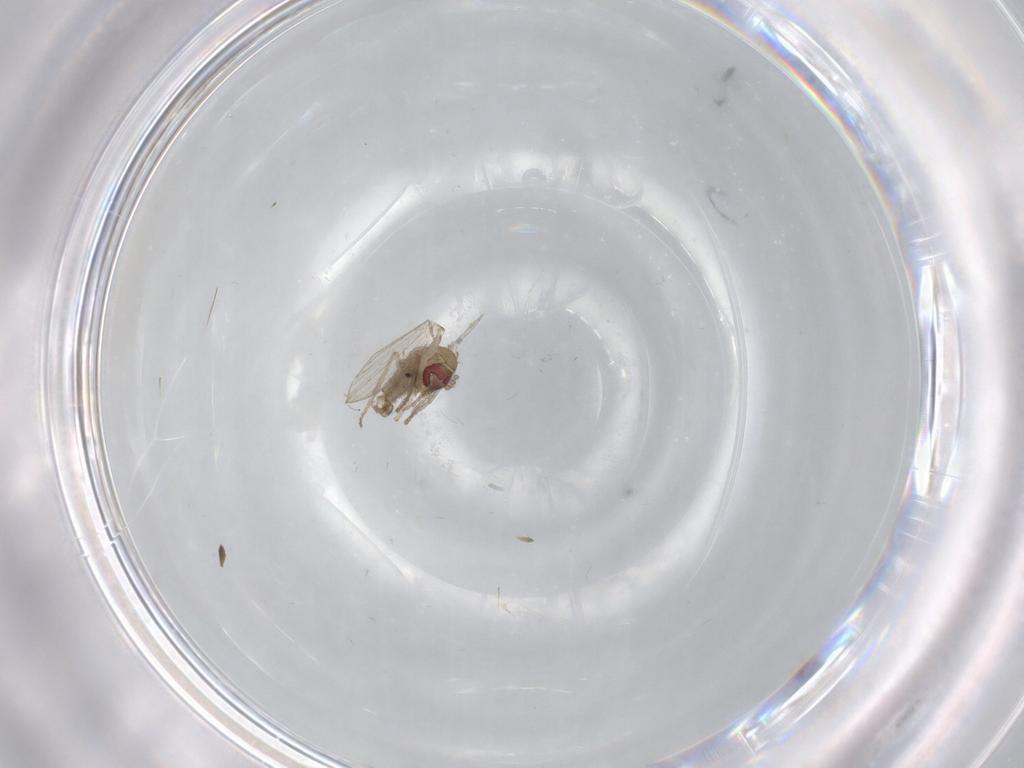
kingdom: Animalia
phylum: Arthropoda
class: Insecta
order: Diptera
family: Psychodidae
